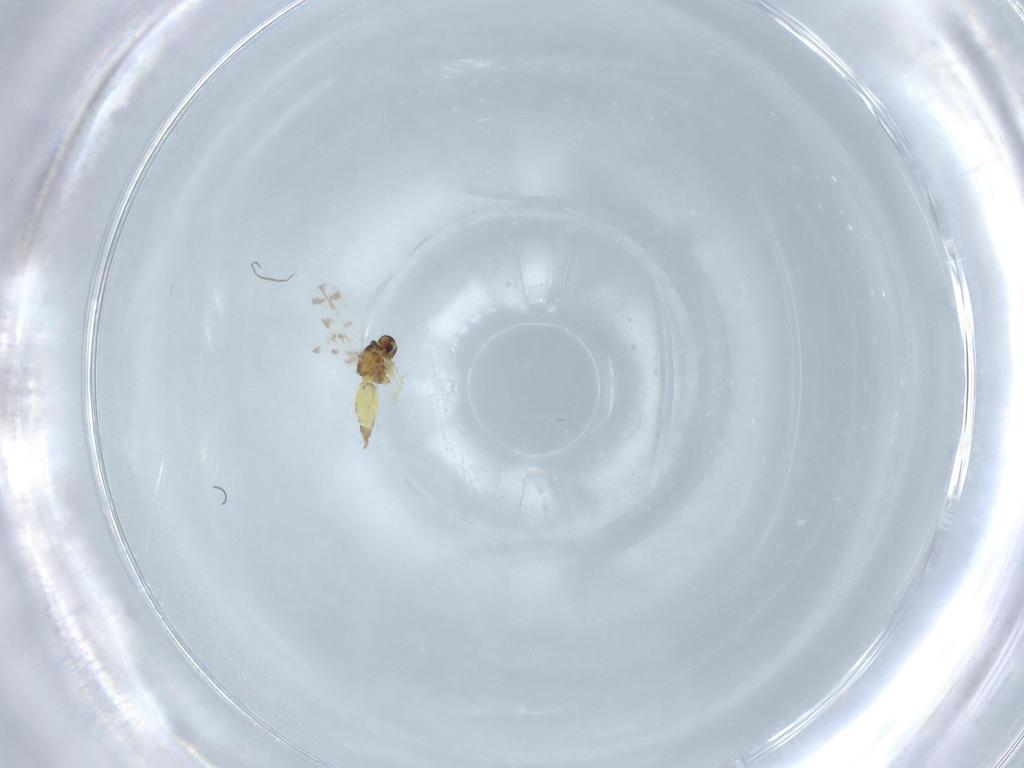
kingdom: Animalia
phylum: Arthropoda
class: Insecta
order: Hemiptera
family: Aleyrodidae
